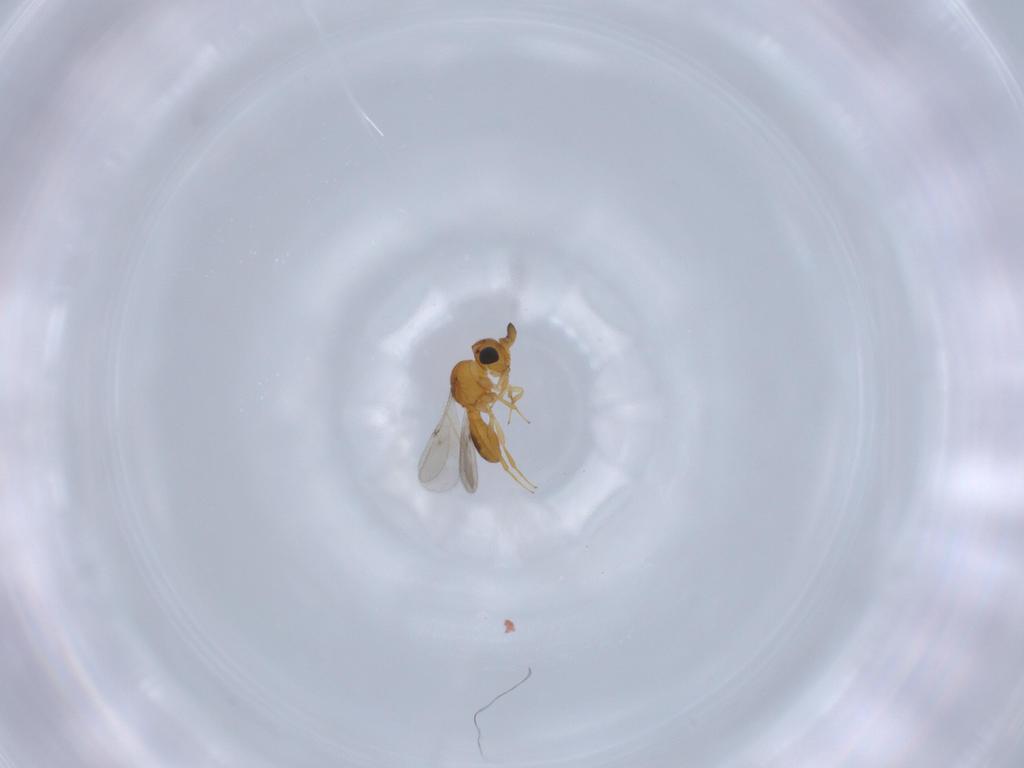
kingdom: Animalia
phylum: Arthropoda
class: Insecta
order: Hymenoptera
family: Scelionidae
